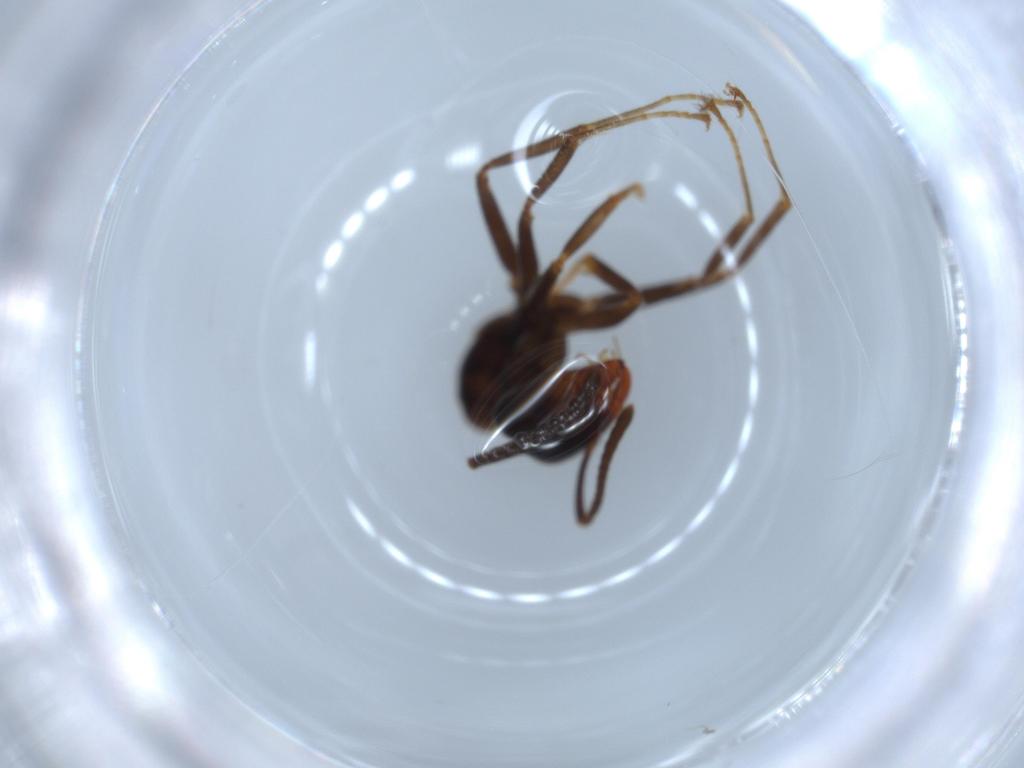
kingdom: Animalia
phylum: Arthropoda
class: Insecta
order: Hymenoptera
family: Formicidae
